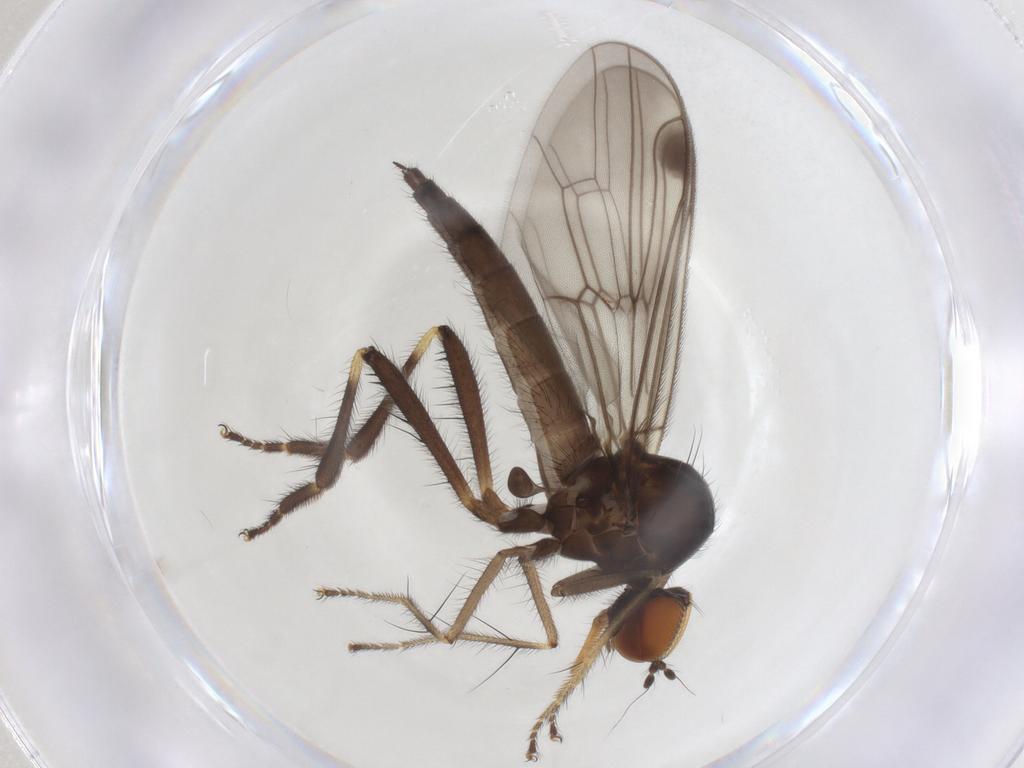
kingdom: Animalia
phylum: Arthropoda
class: Insecta
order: Diptera
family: Hybotidae
